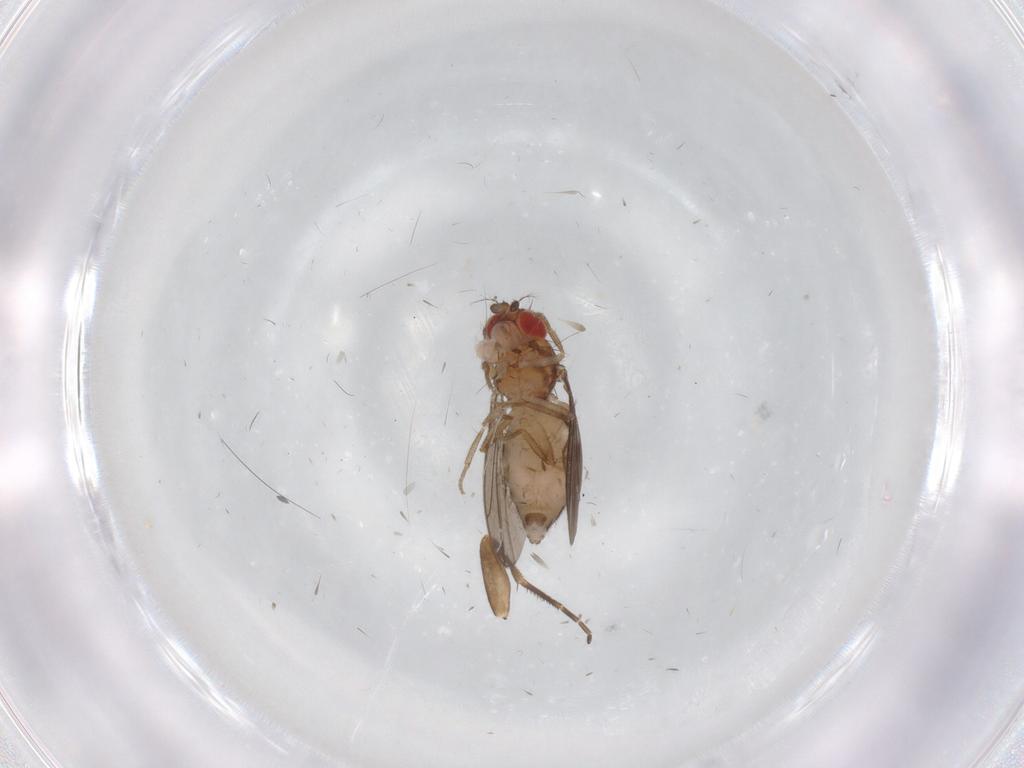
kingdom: Animalia
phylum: Arthropoda
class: Insecta
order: Diptera
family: Drosophilidae
